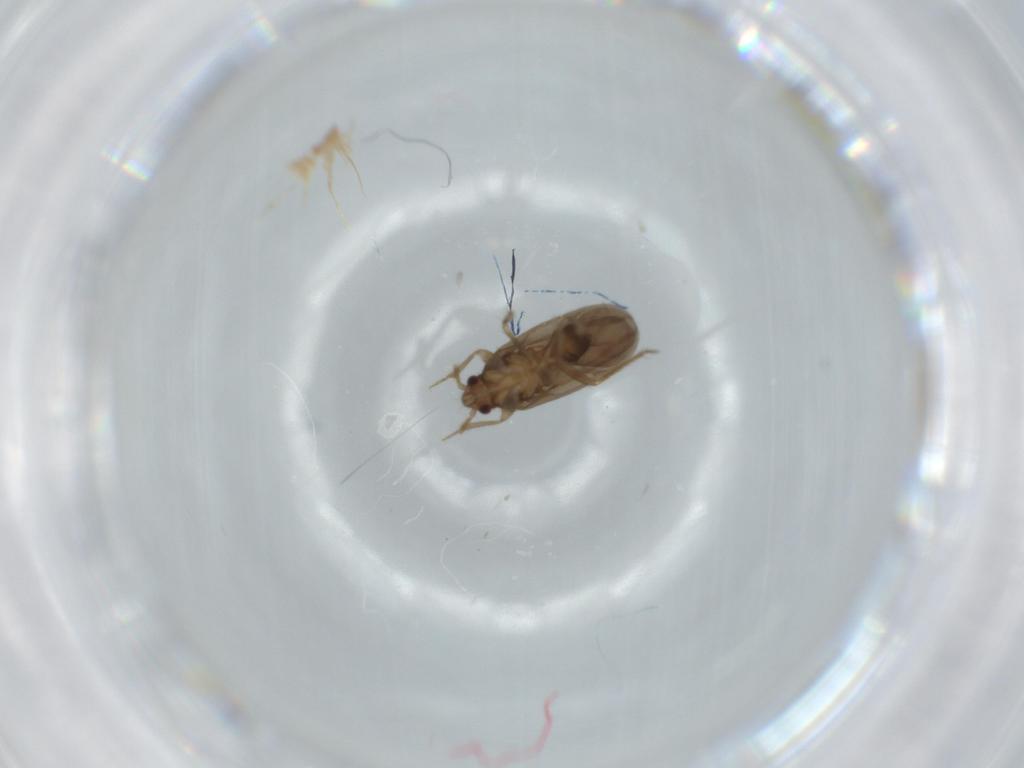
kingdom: Animalia
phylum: Arthropoda
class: Insecta
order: Hemiptera
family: Ceratocombidae
